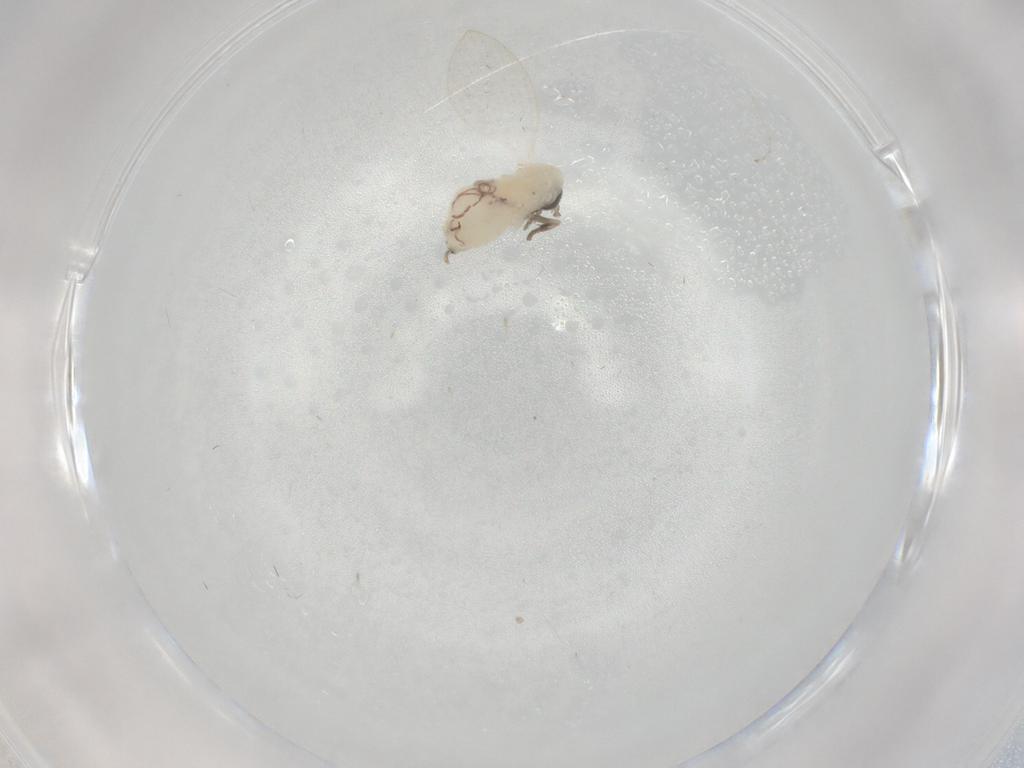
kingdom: Animalia
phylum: Arthropoda
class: Insecta
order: Diptera
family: Psychodidae
